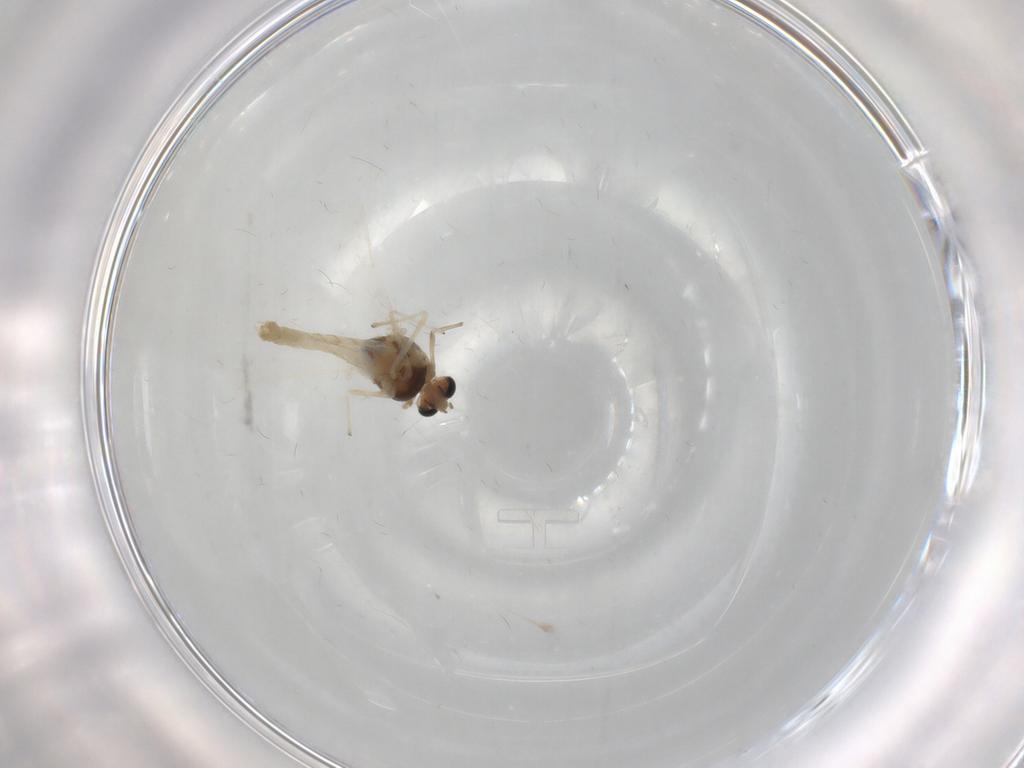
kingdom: Animalia
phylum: Arthropoda
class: Insecta
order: Diptera
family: Chironomidae
